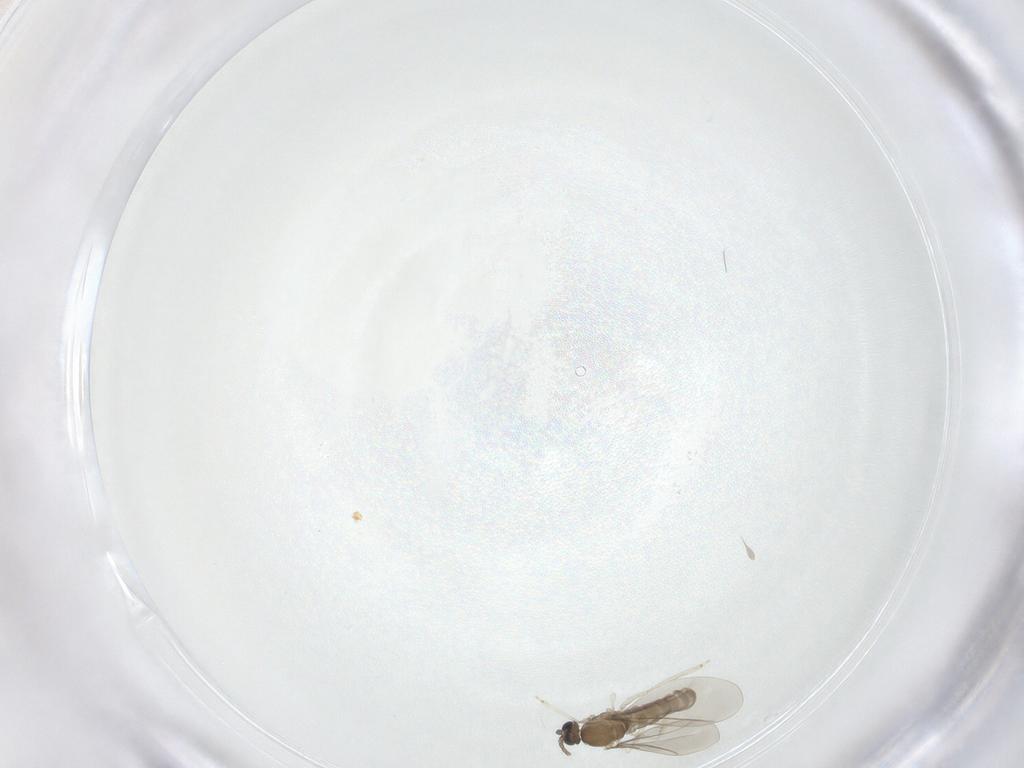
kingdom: Animalia
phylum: Arthropoda
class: Insecta
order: Diptera
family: Cecidomyiidae
